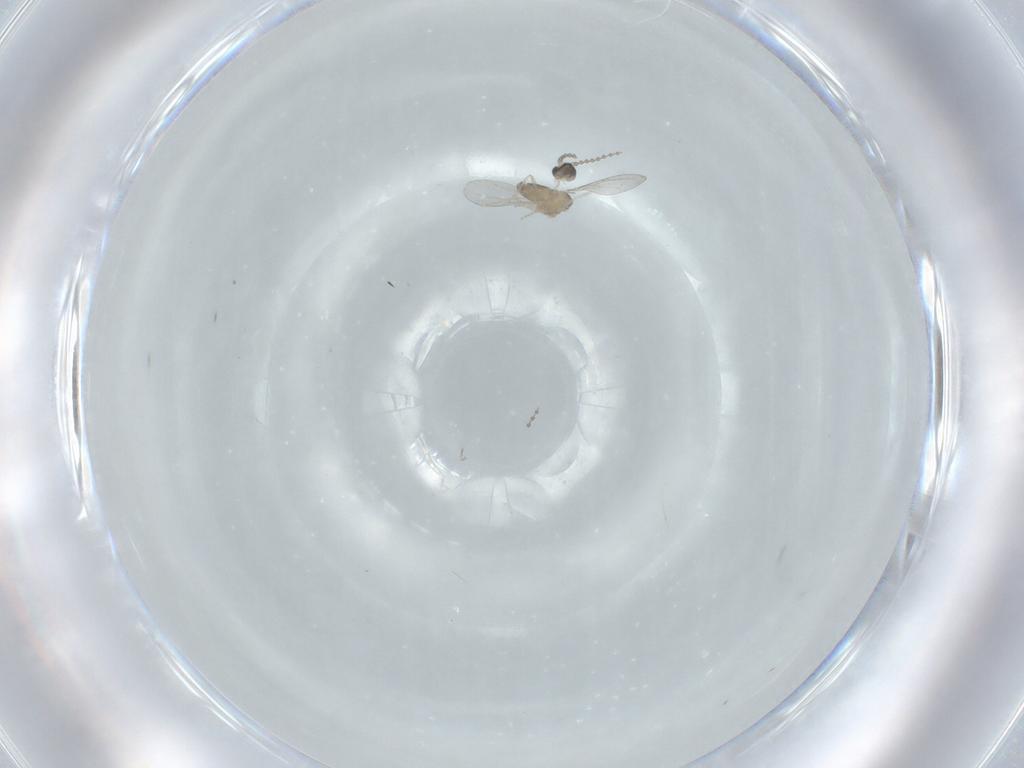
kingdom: Animalia
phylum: Arthropoda
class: Insecta
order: Diptera
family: Cecidomyiidae
